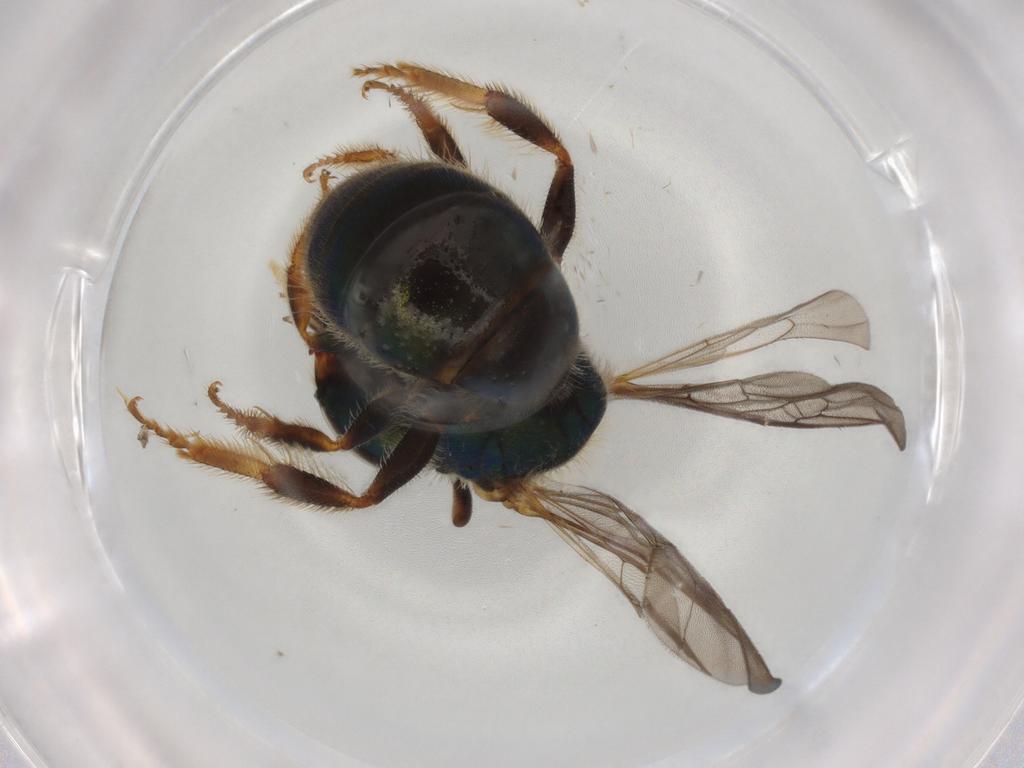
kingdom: Animalia
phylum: Arthropoda
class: Insecta
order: Hymenoptera
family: Halictidae
